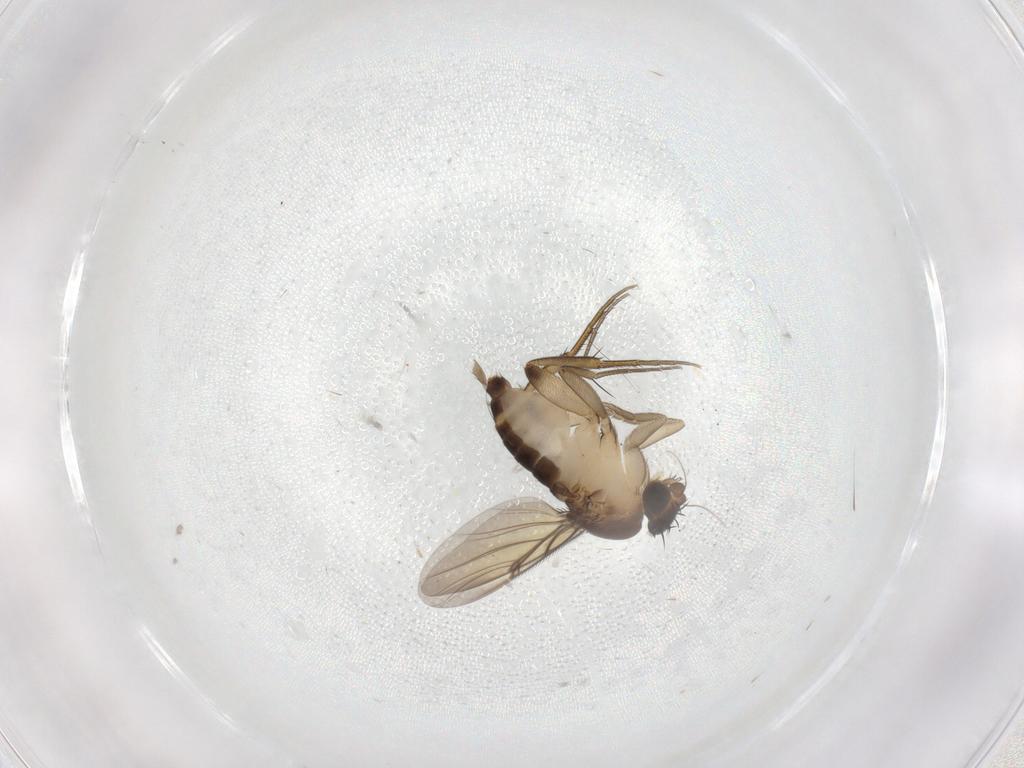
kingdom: Animalia
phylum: Arthropoda
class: Insecta
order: Diptera
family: Phoridae
